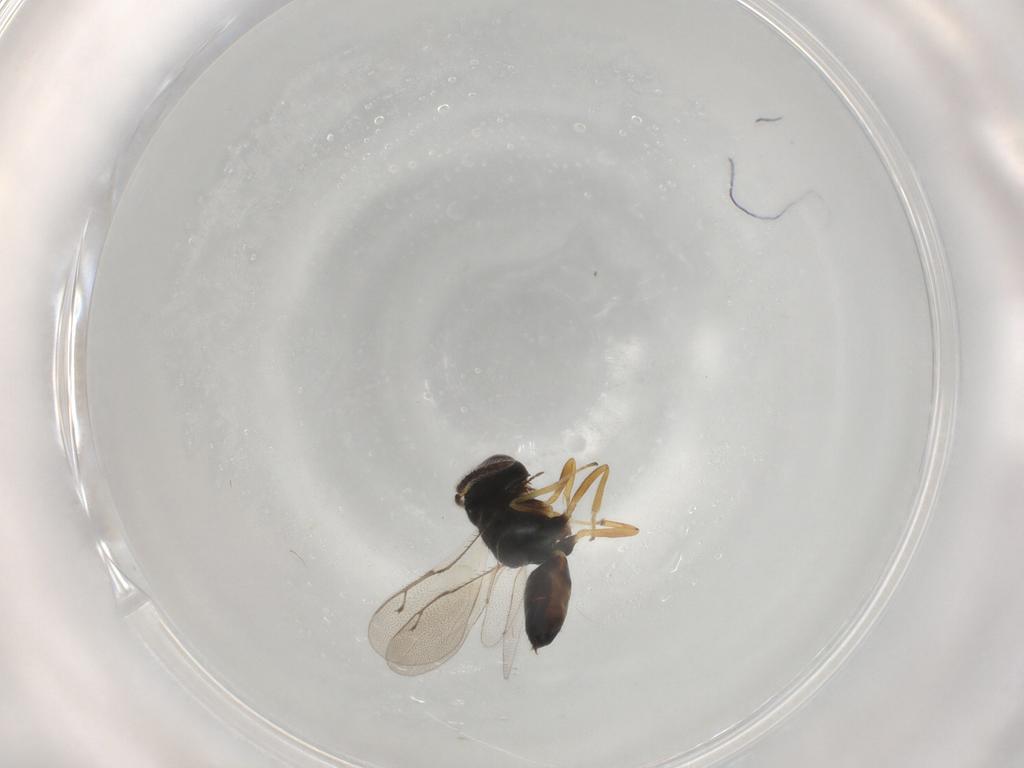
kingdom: Animalia
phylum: Arthropoda
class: Insecta
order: Hymenoptera
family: Pteromalidae
